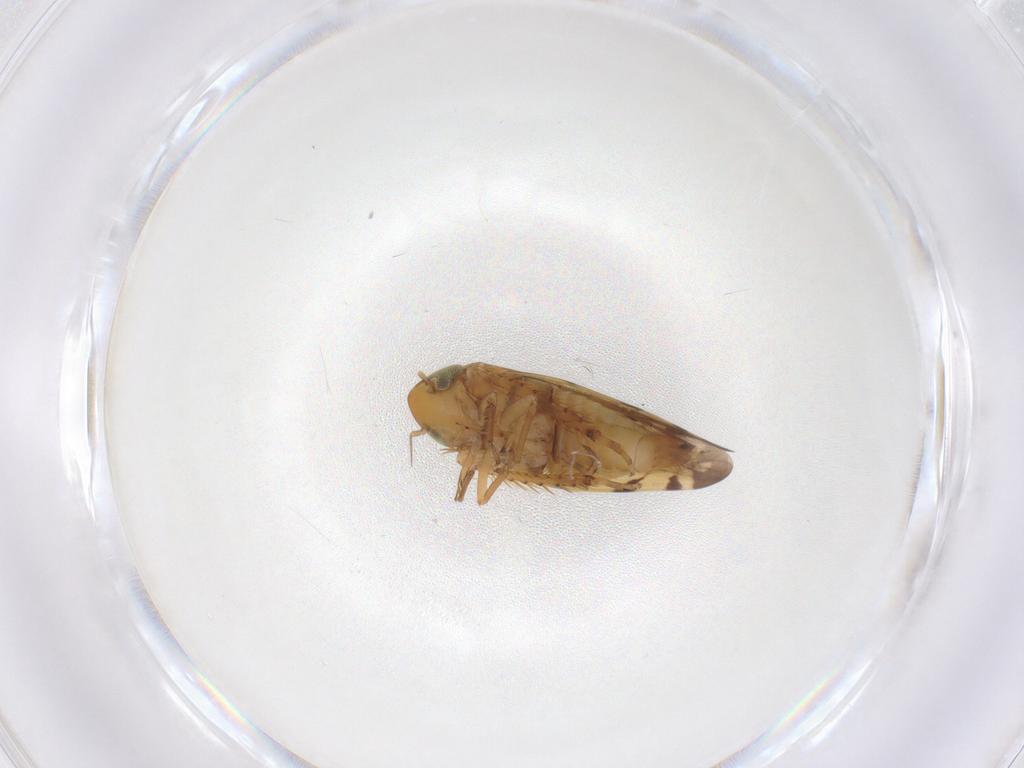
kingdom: Animalia
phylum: Arthropoda
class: Insecta
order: Hemiptera
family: Cicadellidae
